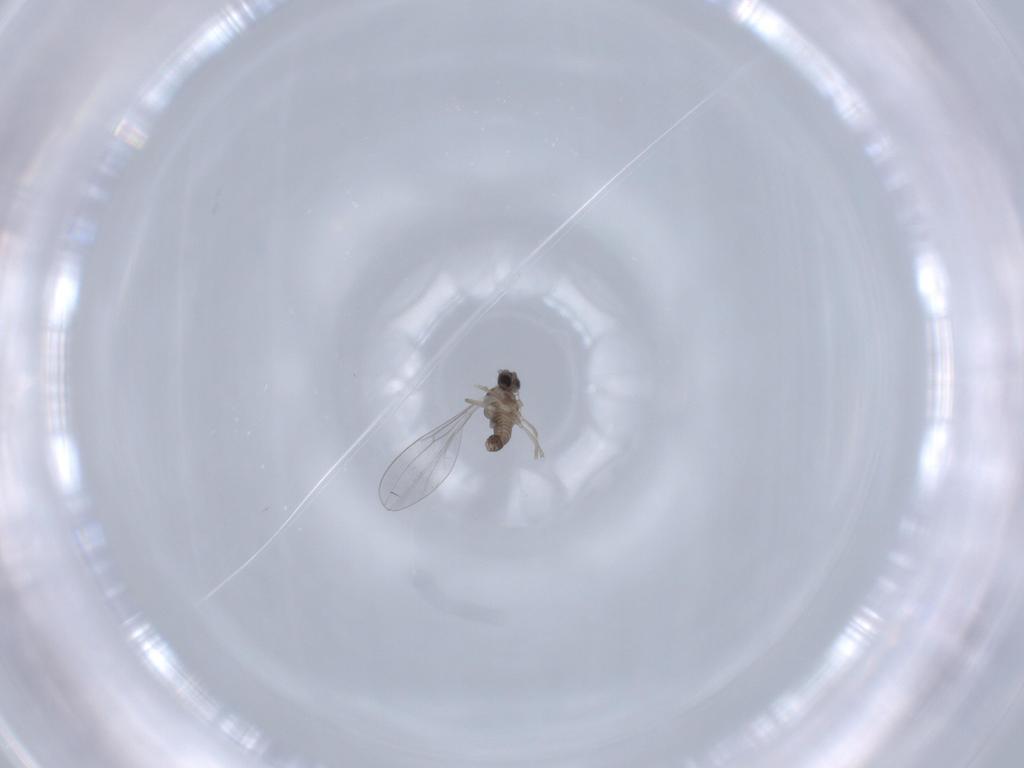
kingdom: Animalia
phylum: Arthropoda
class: Insecta
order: Diptera
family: Cecidomyiidae
